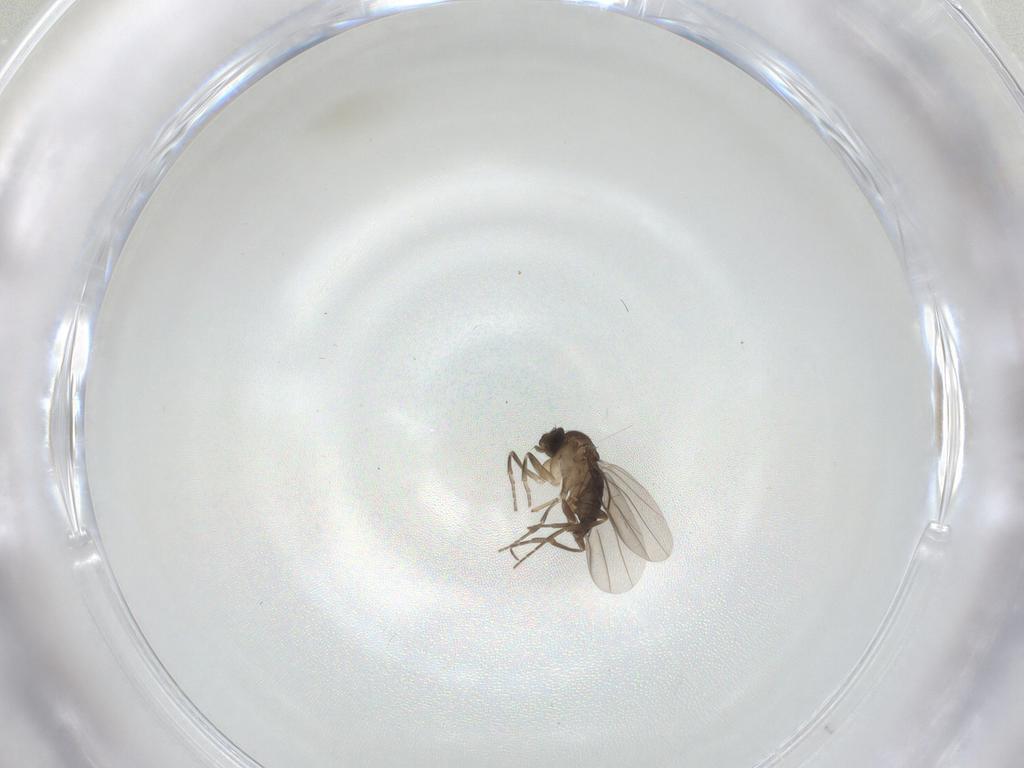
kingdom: Animalia
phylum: Arthropoda
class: Insecta
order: Diptera
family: Phoridae
